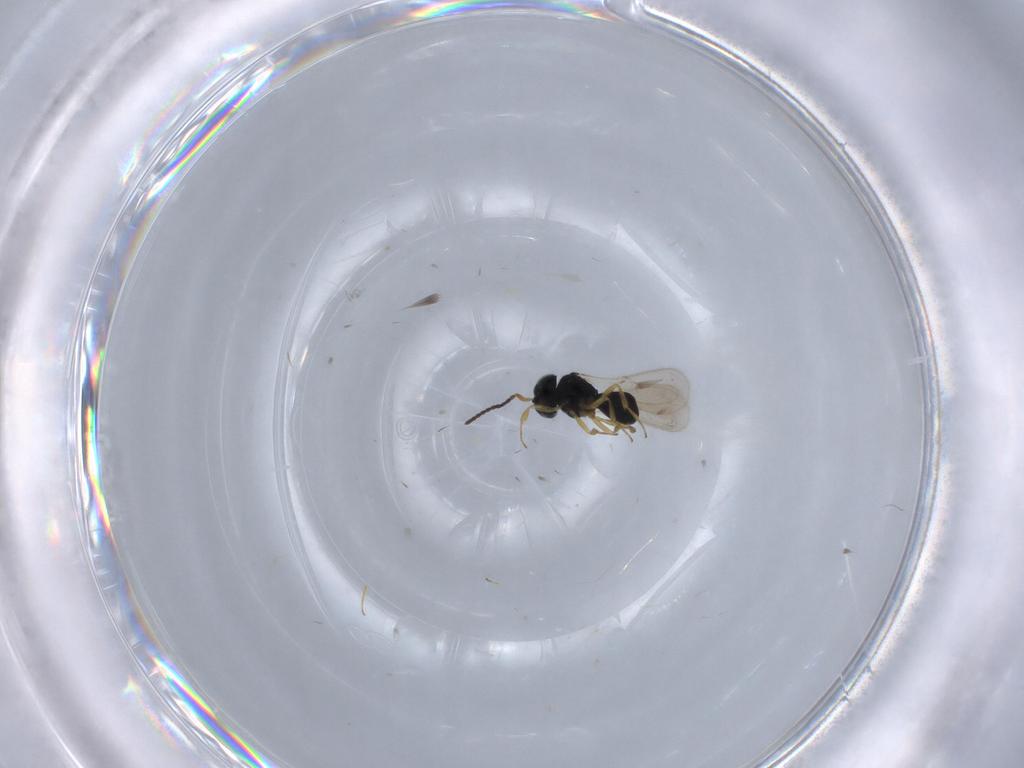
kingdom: Animalia
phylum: Arthropoda
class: Insecta
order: Hymenoptera
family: Scelionidae
